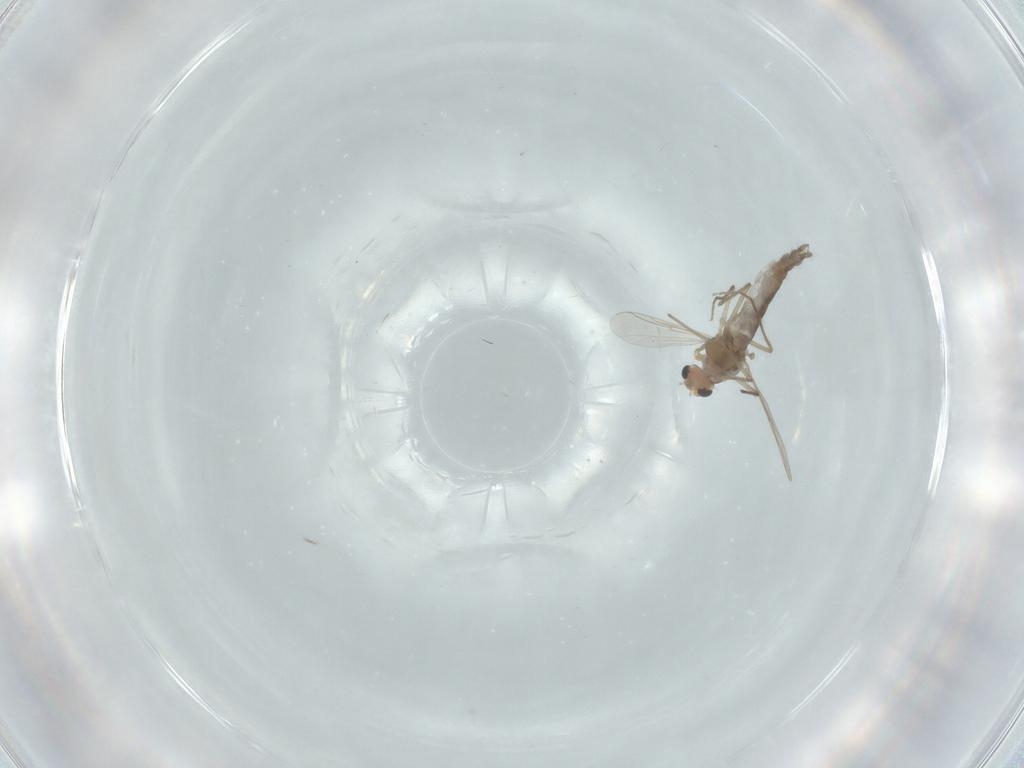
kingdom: Animalia
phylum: Arthropoda
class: Insecta
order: Diptera
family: Chironomidae
